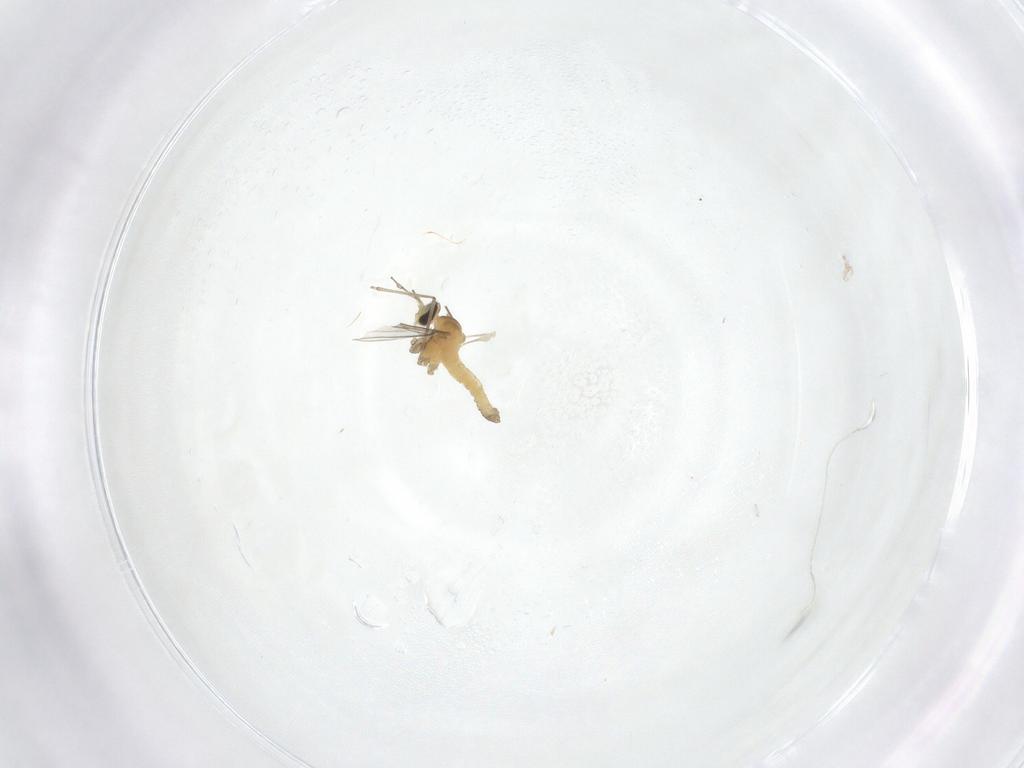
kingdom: Animalia
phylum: Arthropoda
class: Insecta
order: Diptera
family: Cecidomyiidae
